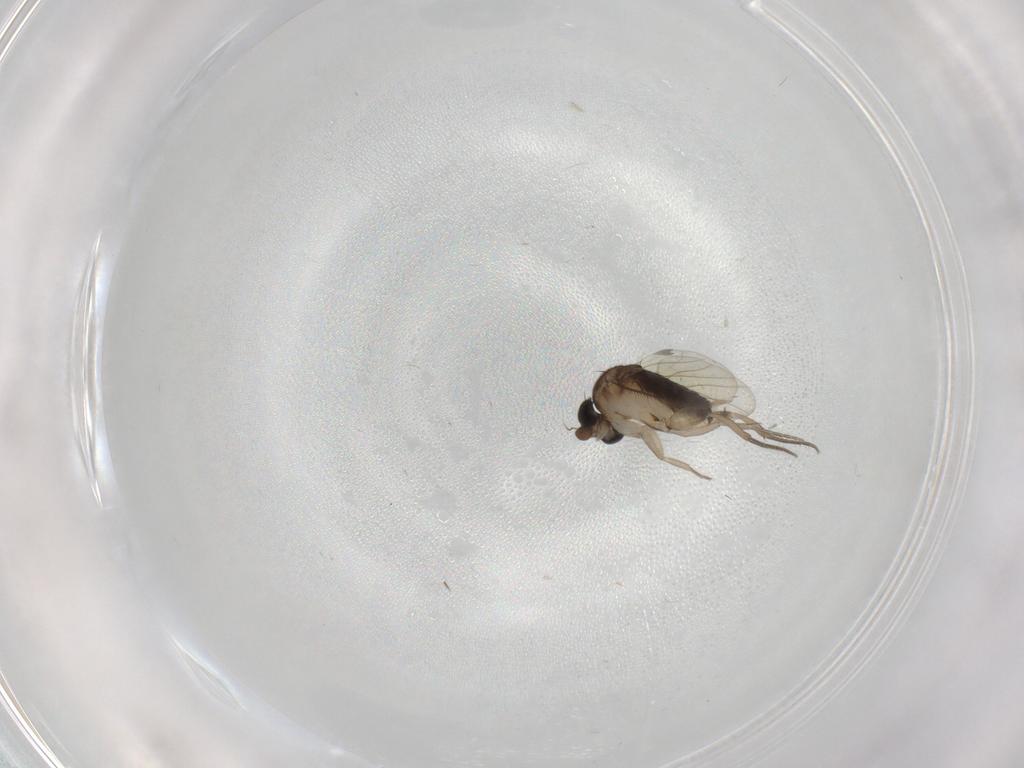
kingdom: Animalia
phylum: Arthropoda
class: Insecta
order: Diptera
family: Phoridae
